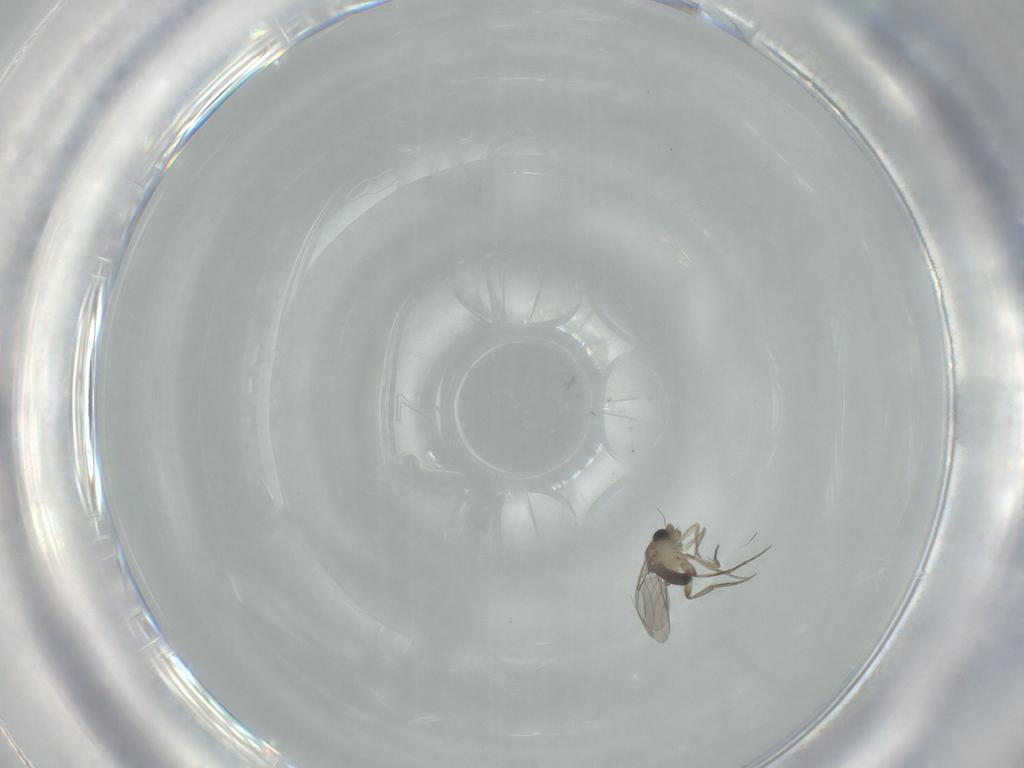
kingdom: Animalia
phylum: Arthropoda
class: Insecta
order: Diptera
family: Phoridae
